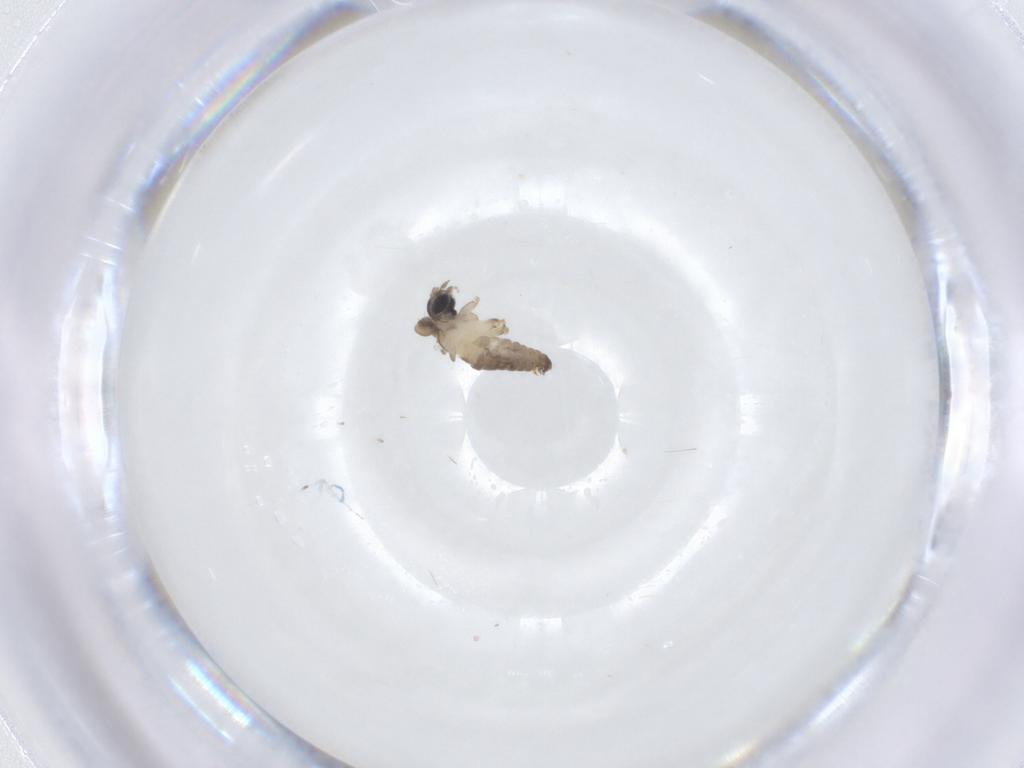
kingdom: Animalia
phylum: Arthropoda
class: Insecta
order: Diptera
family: Psychodidae
